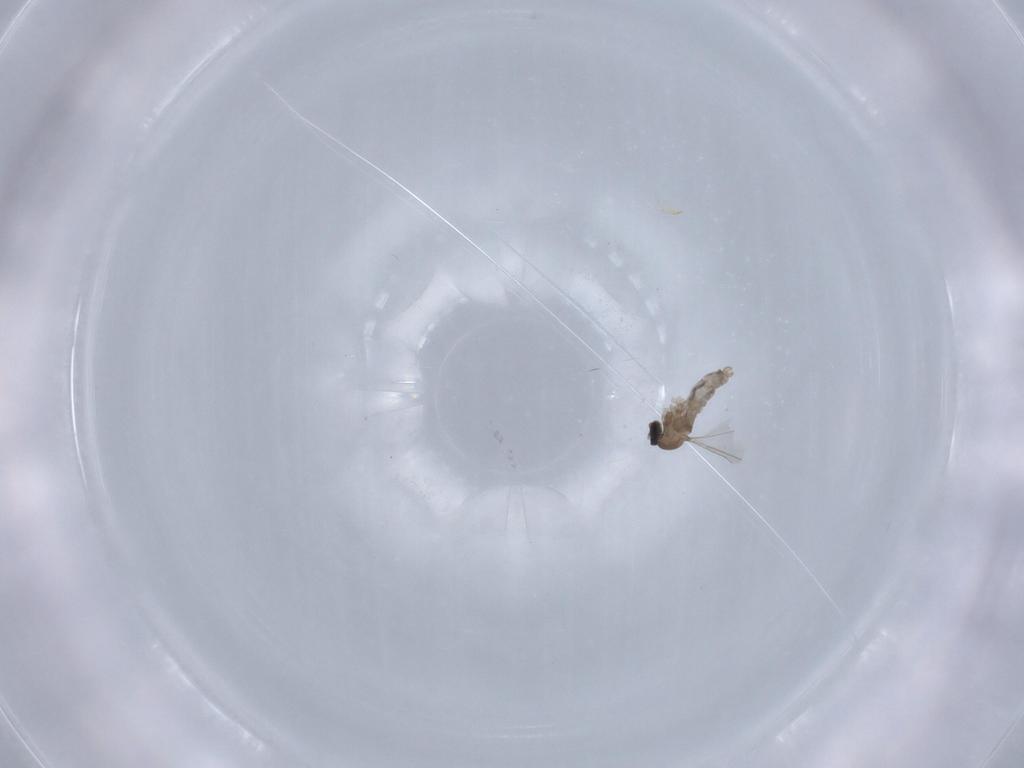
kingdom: Animalia
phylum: Arthropoda
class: Insecta
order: Diptera
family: Cecidomyiidae
